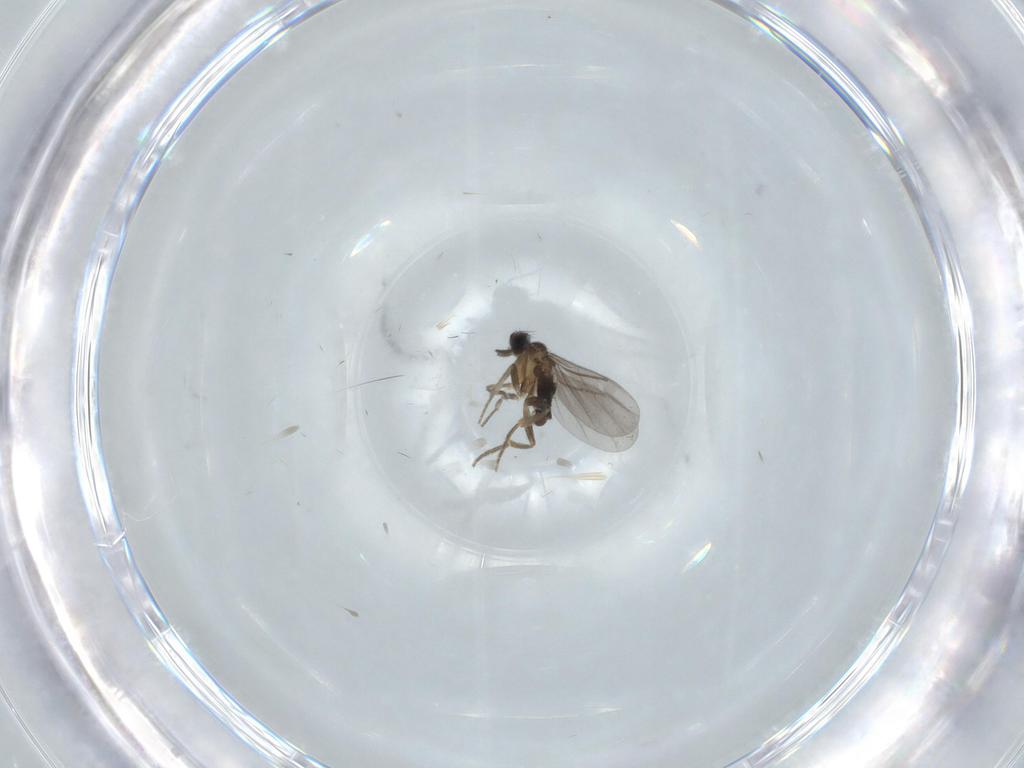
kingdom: Animalia
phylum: Arthropoda
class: Insecta
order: Diptera
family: Chironomidae
